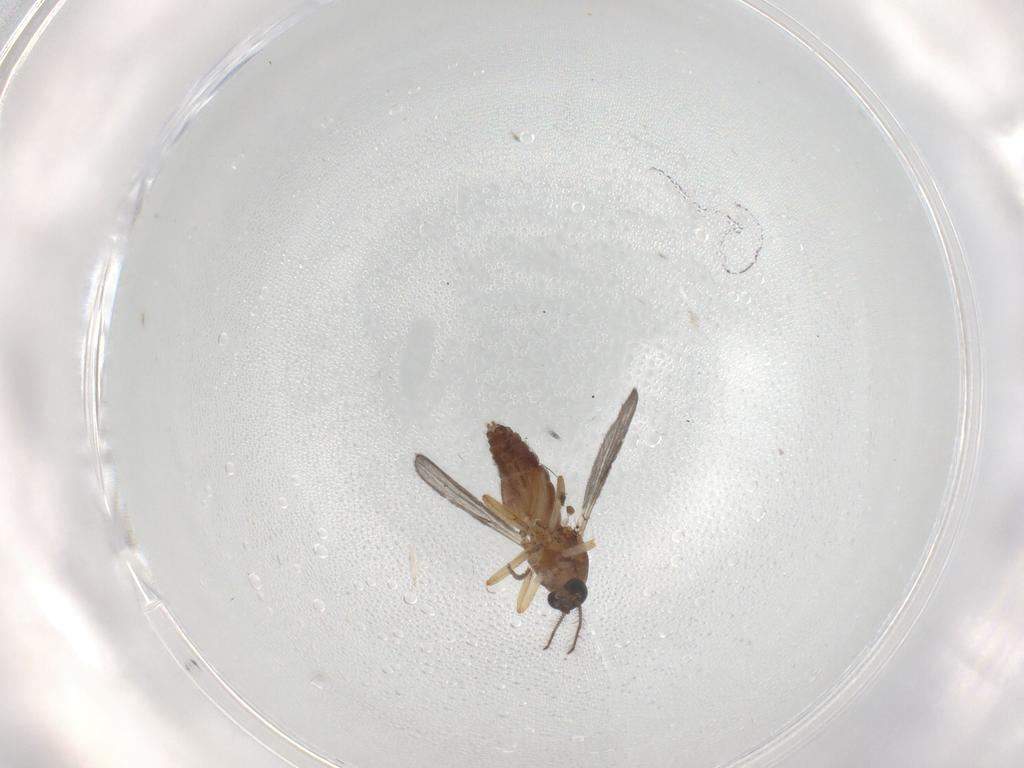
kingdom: Animalia
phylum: Arthropoda
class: Insecta
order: Diptera
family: Ceratopogonidae
